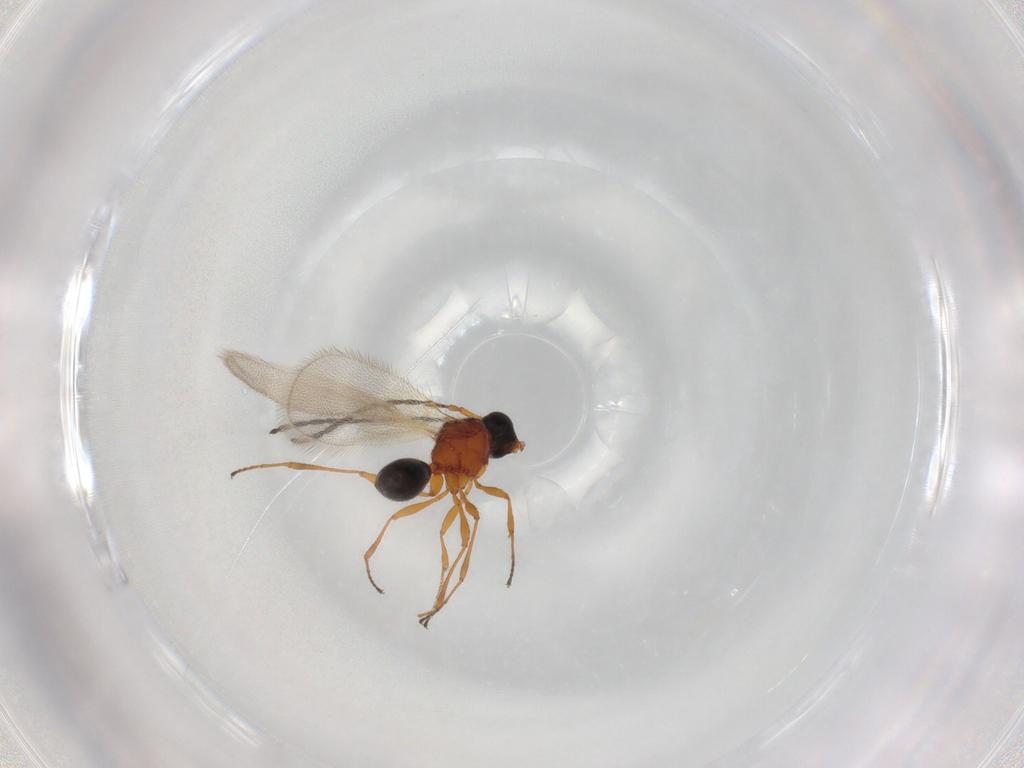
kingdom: Animalia
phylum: Arthropoda
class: Insecta
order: Hymenoptera
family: Diapriidae
